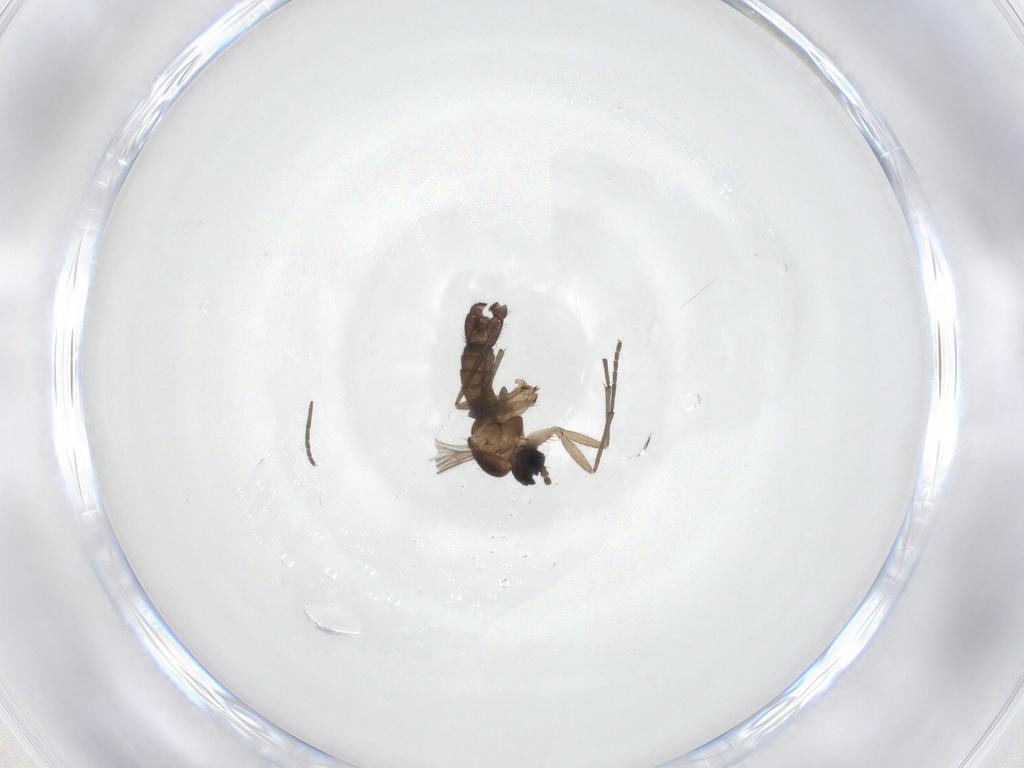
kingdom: Animalia
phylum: Arthropoda
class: Insecta
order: Diptera
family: Sciaridae
